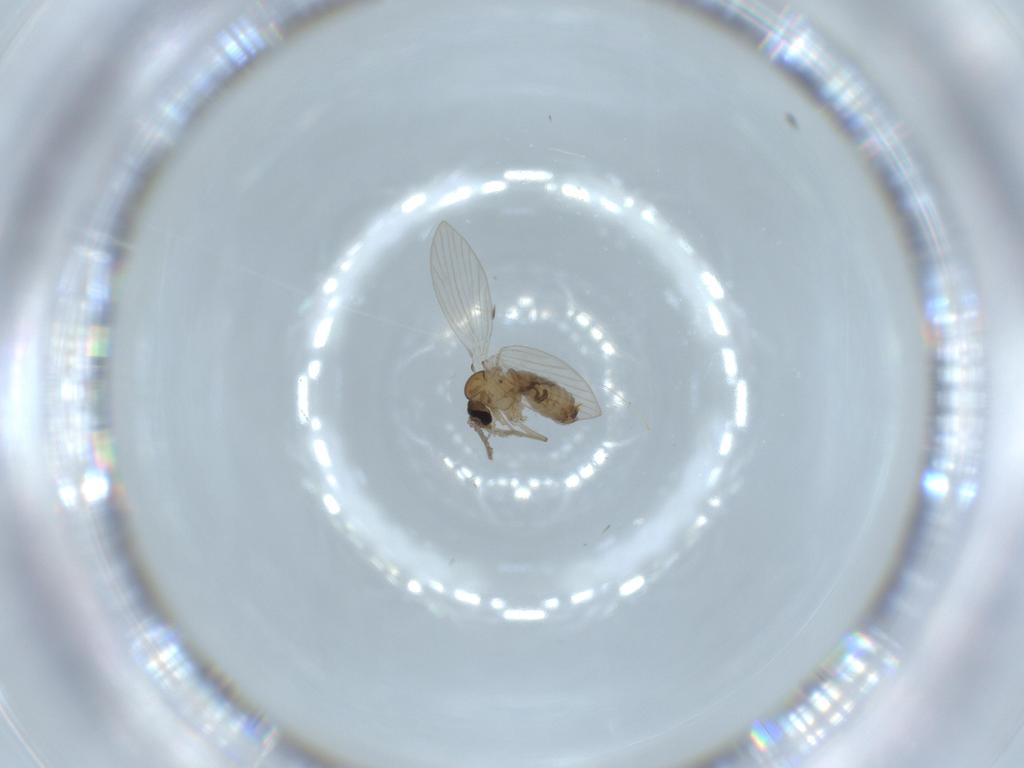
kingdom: Animalia
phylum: Arthropoda
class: Insecta
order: Diptera
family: Psychodidae
